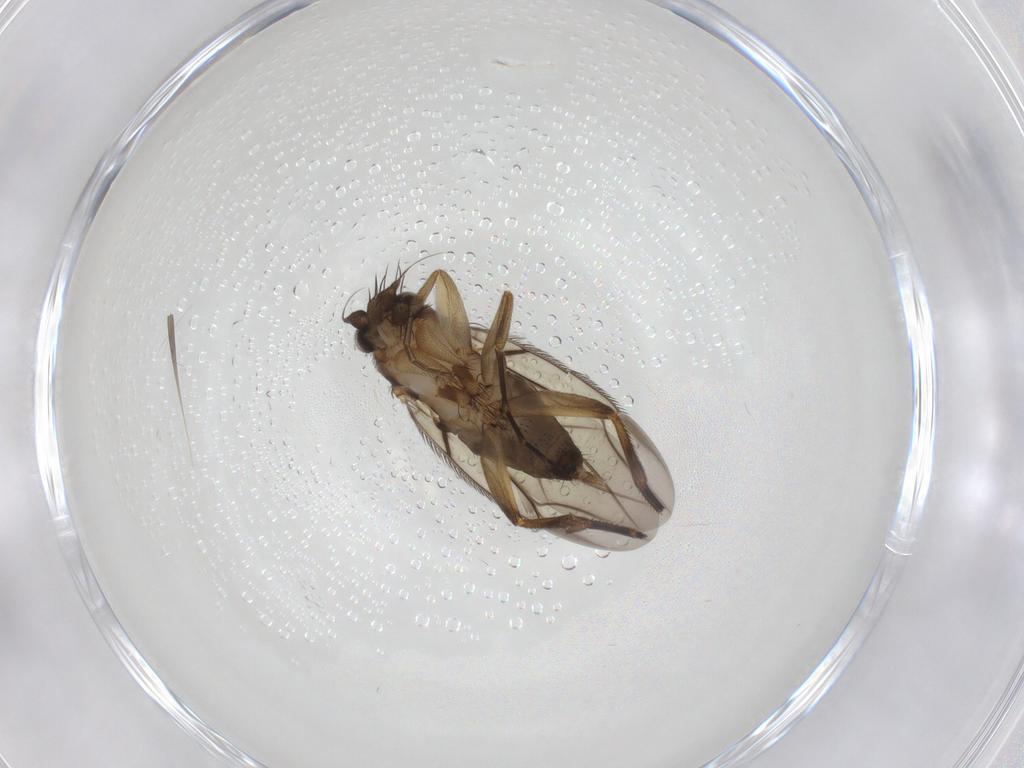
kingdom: Animalia
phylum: Arthropoda
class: Insecta
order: Diptera
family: Phoridae
